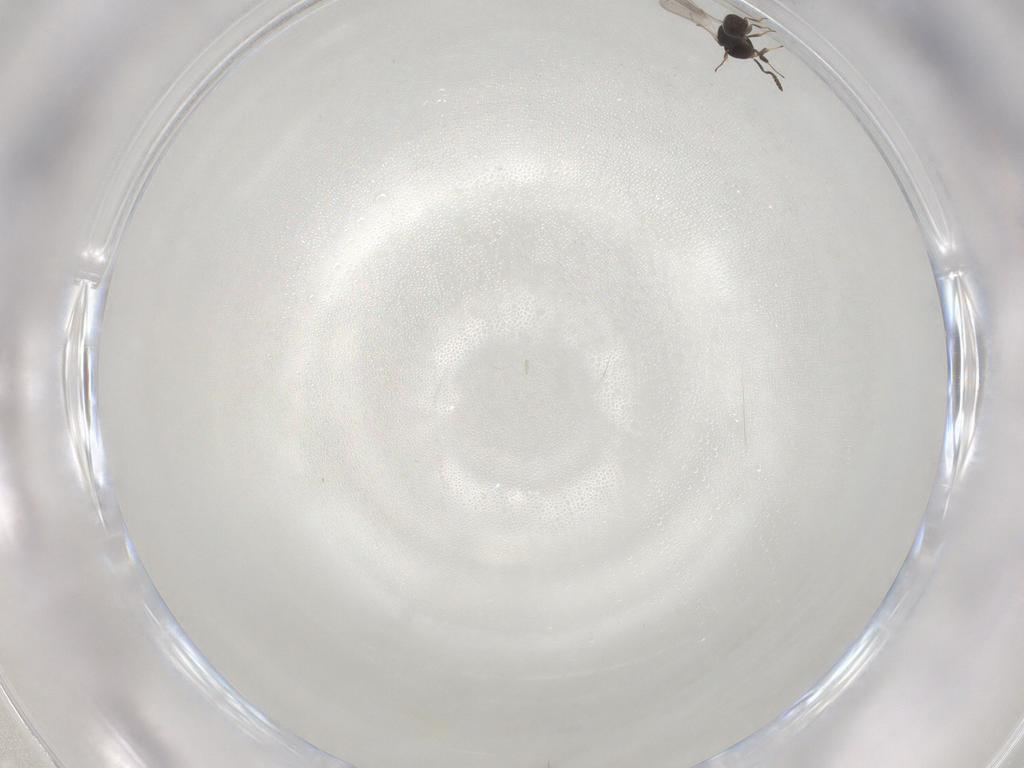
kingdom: Animalia
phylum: Arthropoda
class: Insecta
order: Hymenoptera
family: Scelionidae
